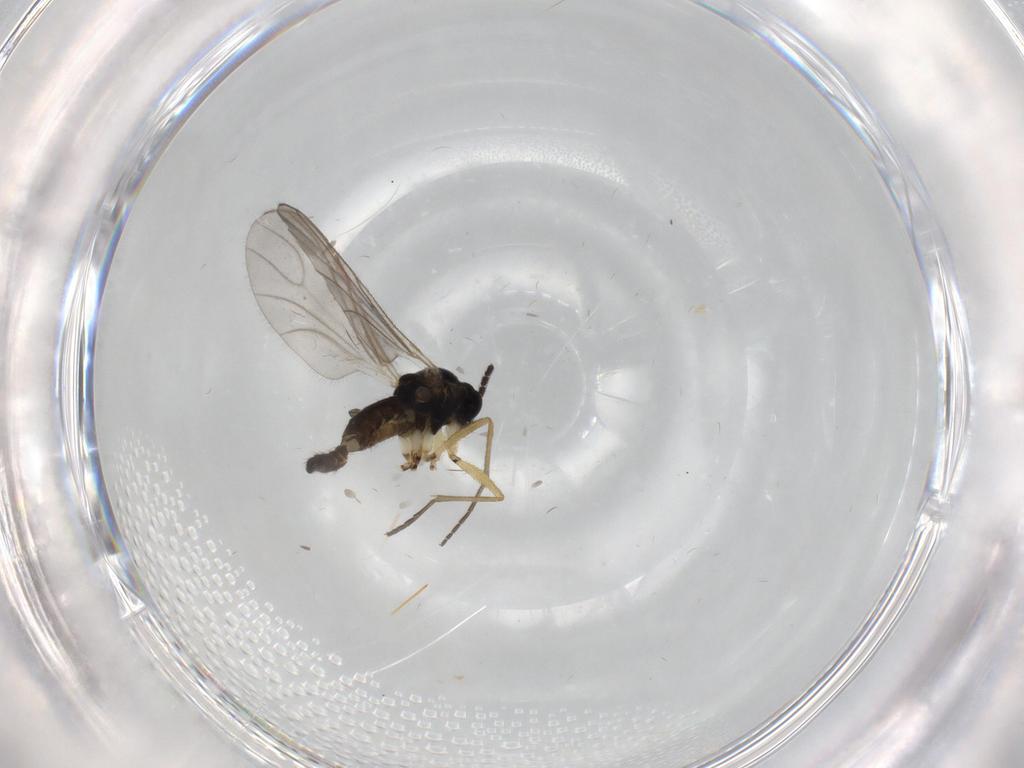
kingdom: Animalia
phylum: Arthropoda
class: Insecta
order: Diptera
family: Sciaridae
